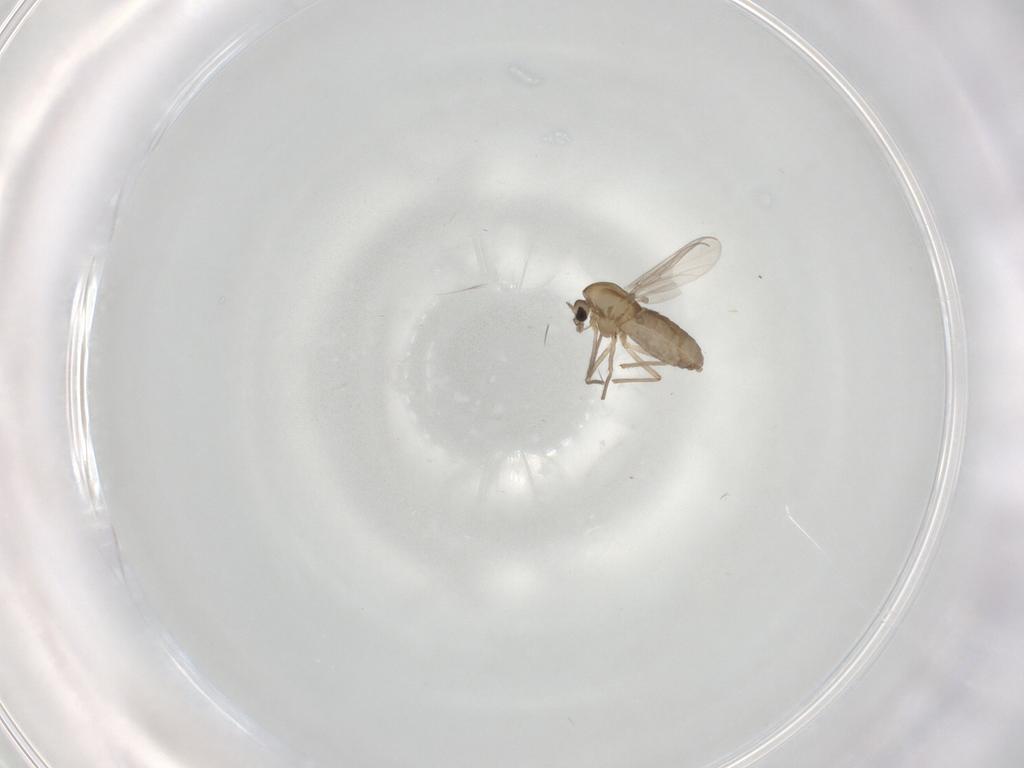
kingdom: Animalia
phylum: Arthropoda
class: Insecta
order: Diptera
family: Chironomidae
